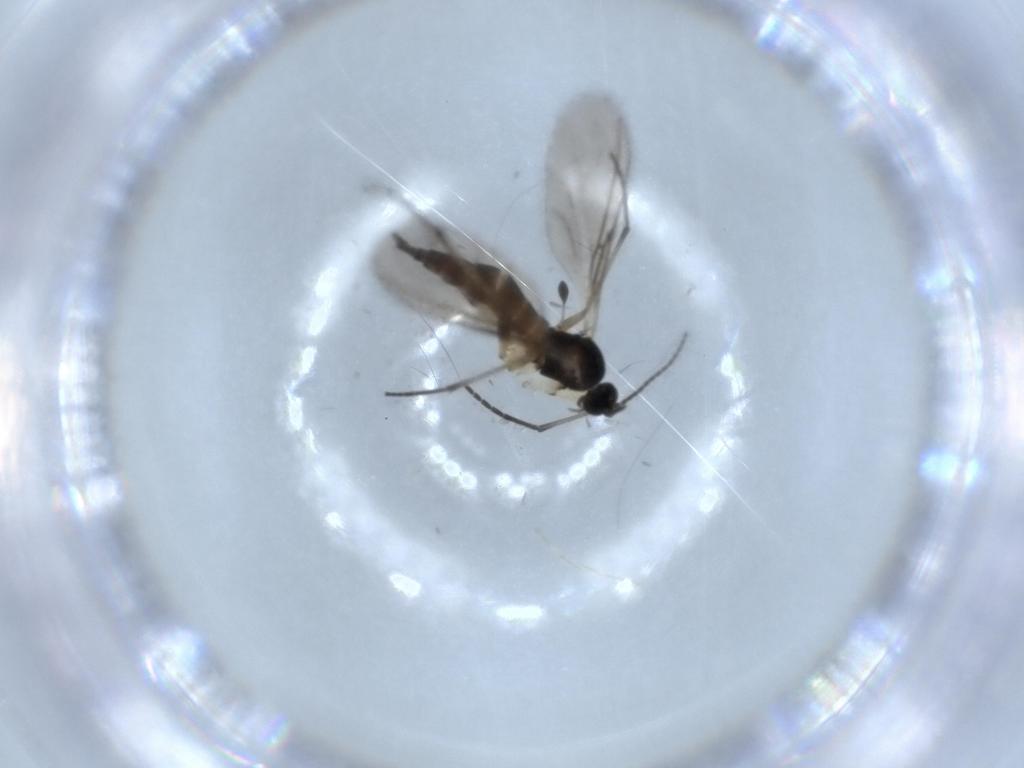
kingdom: Animalia
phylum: Arthropoda
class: Insecta
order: Diptera
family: Sciaridae
